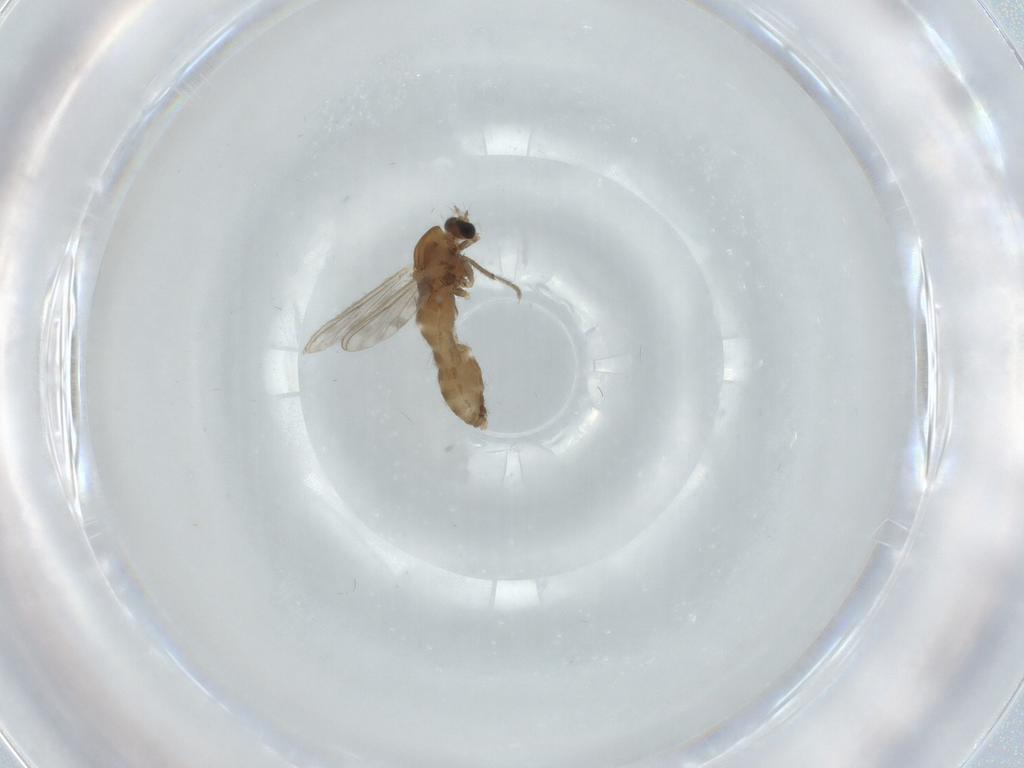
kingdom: Animalia
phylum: Arthropoda
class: Insecta
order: Diptera
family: Chironomidae
